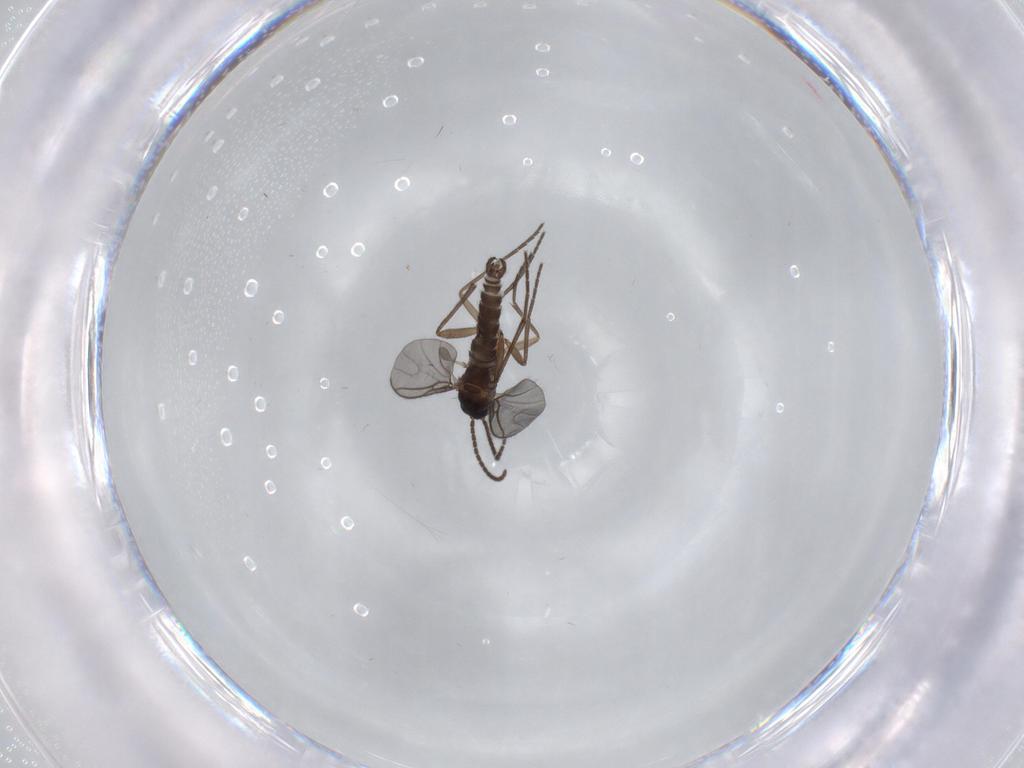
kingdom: Animalia
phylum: Arthropoda
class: Insecta
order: Diptera
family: Sciaridae
